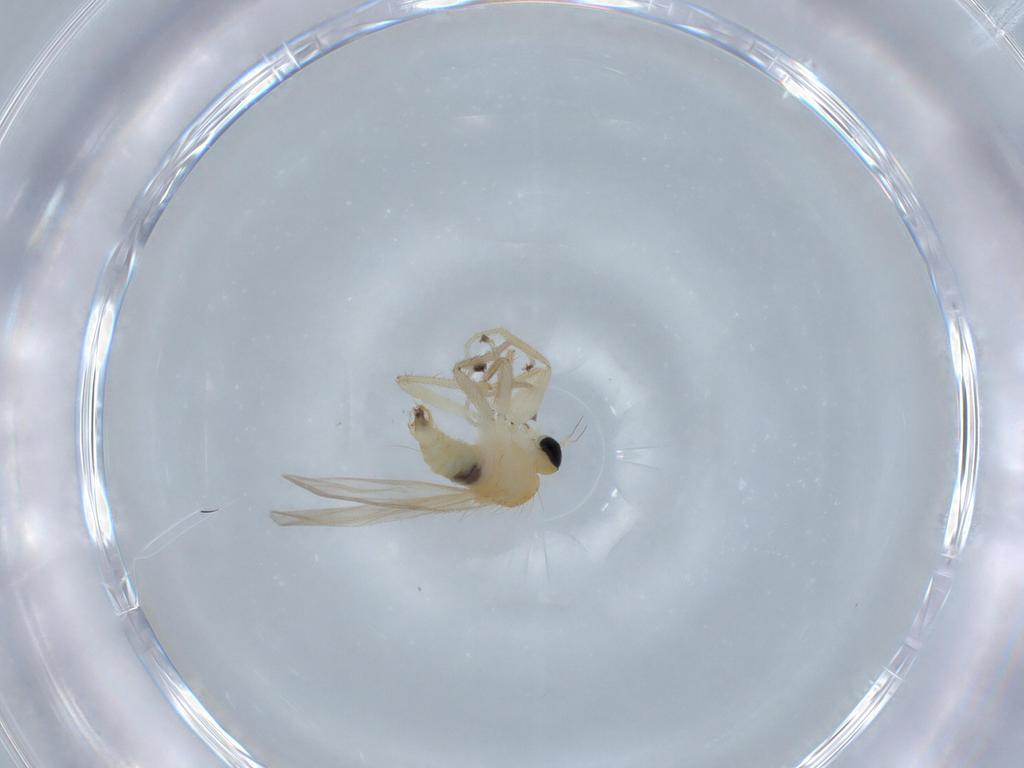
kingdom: Animalia
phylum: Arthropoda
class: Insecta
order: Diptera
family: Hybotidae
